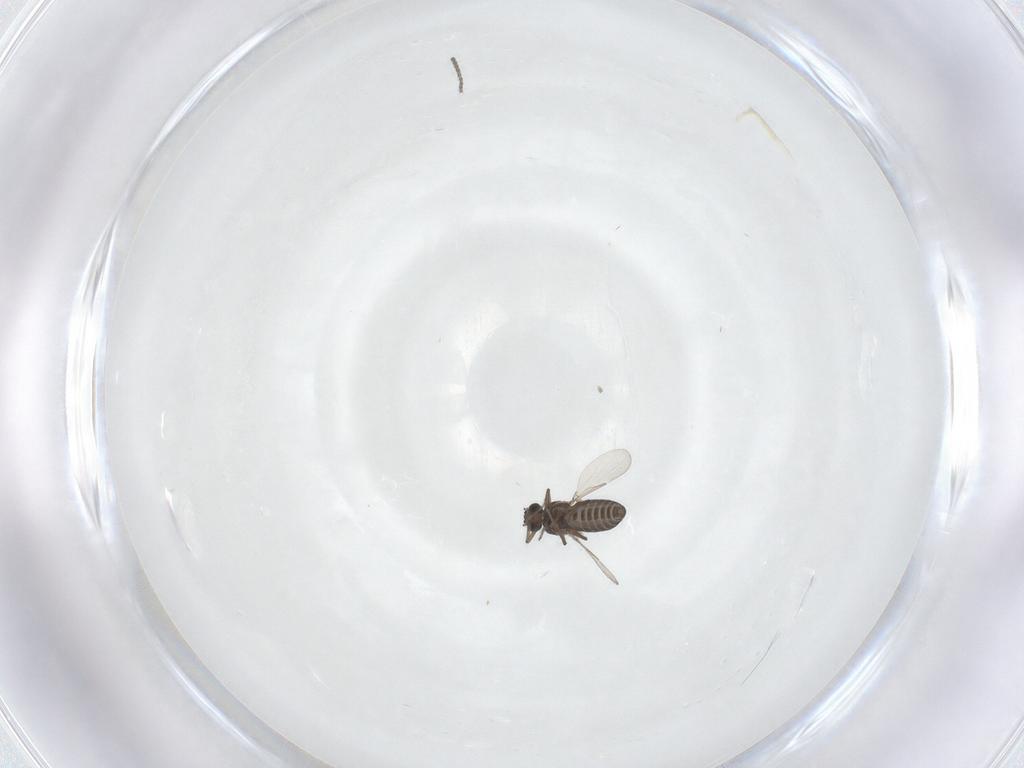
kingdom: Animalia
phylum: Arthropoda
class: Insecta
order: Diptera
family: Ceratopogonidae
